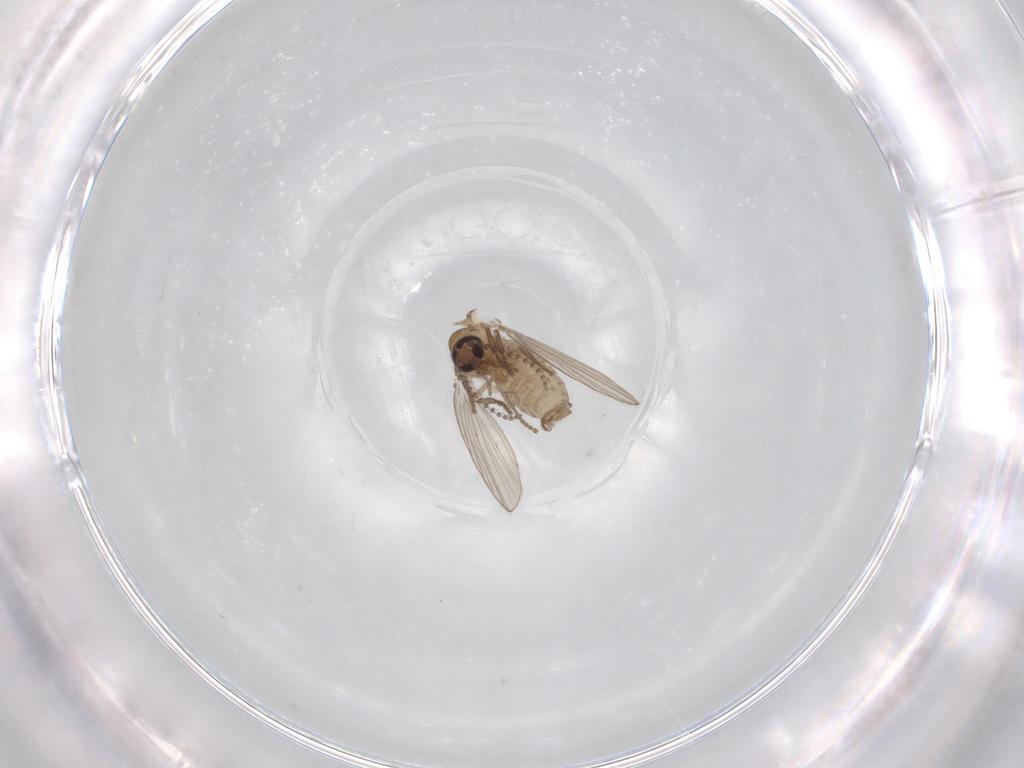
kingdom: Animalia
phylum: Arthropoda
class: Insecta
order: Diptera
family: Psychodidae
